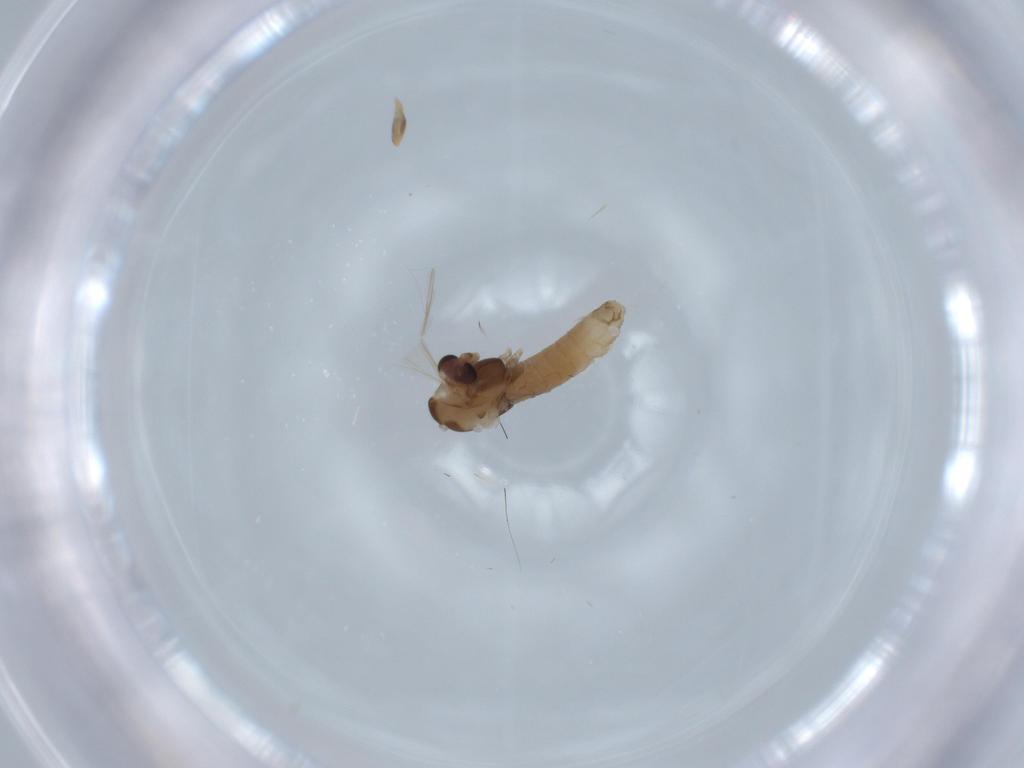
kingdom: Animalia
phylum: Arthropoda
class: Insecta
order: Diptera
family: Chironomidae
